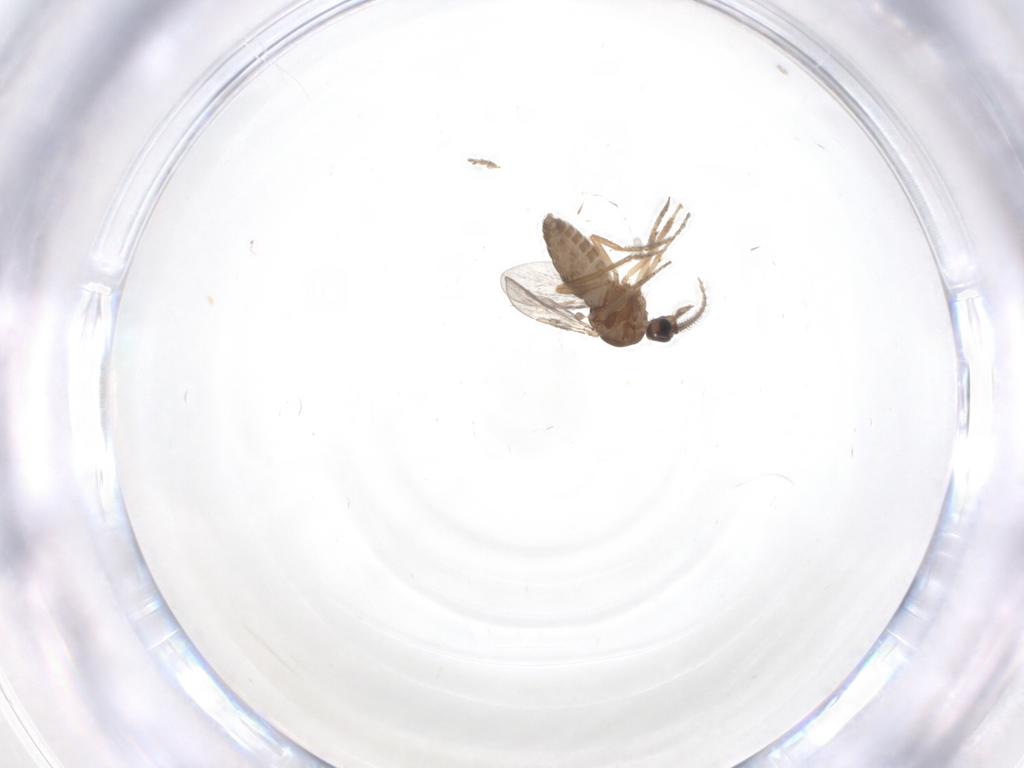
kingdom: Animalia
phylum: Arthropoda
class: Insecta
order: Diptera
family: Ceratopogonidae
